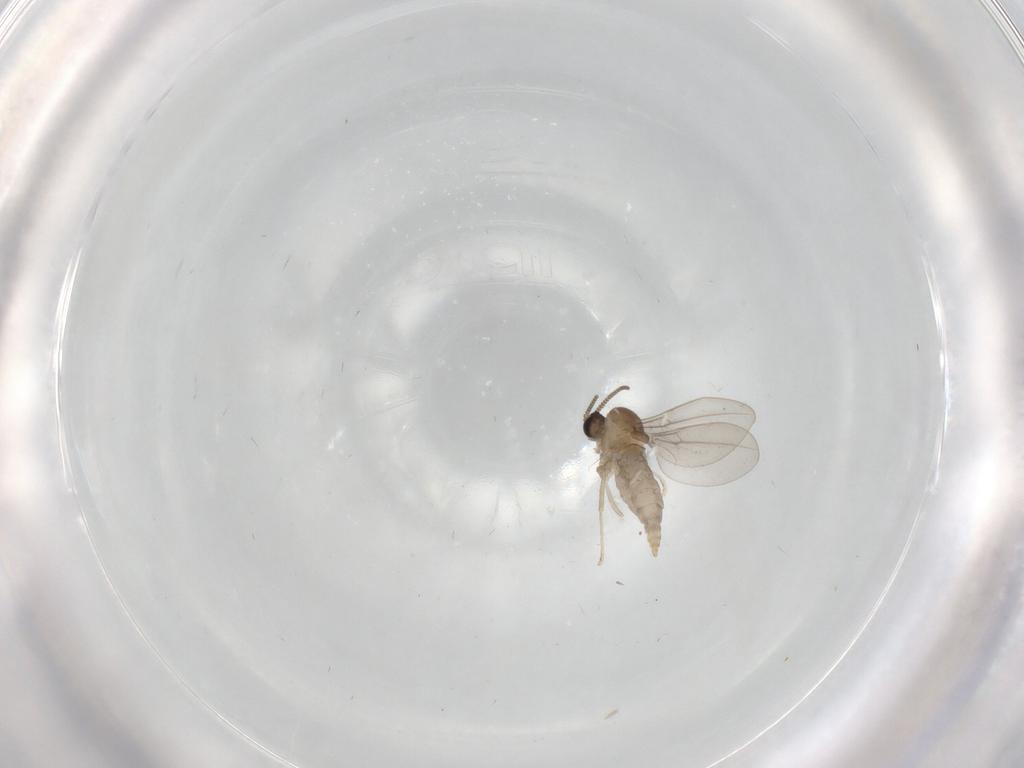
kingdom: Animalia
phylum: Arthropoda
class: Insecta
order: Diptera
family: Cecidomyiidae
